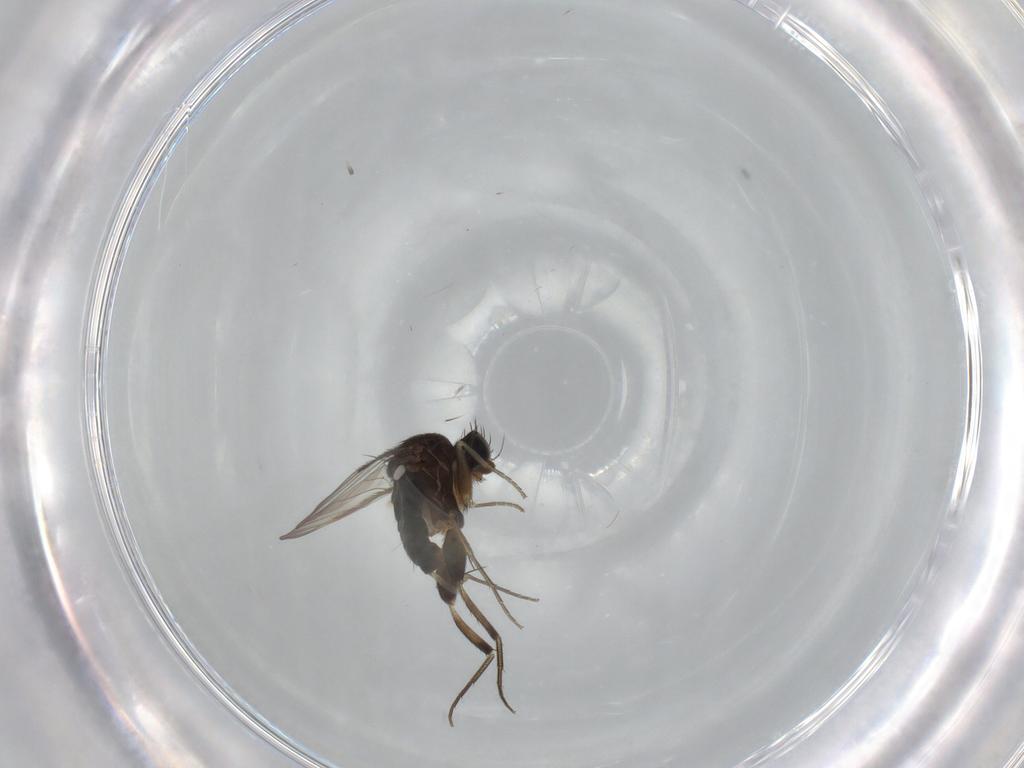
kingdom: Animalia
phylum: Arthropoda
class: Insecta
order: Diptera
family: Phoridae
